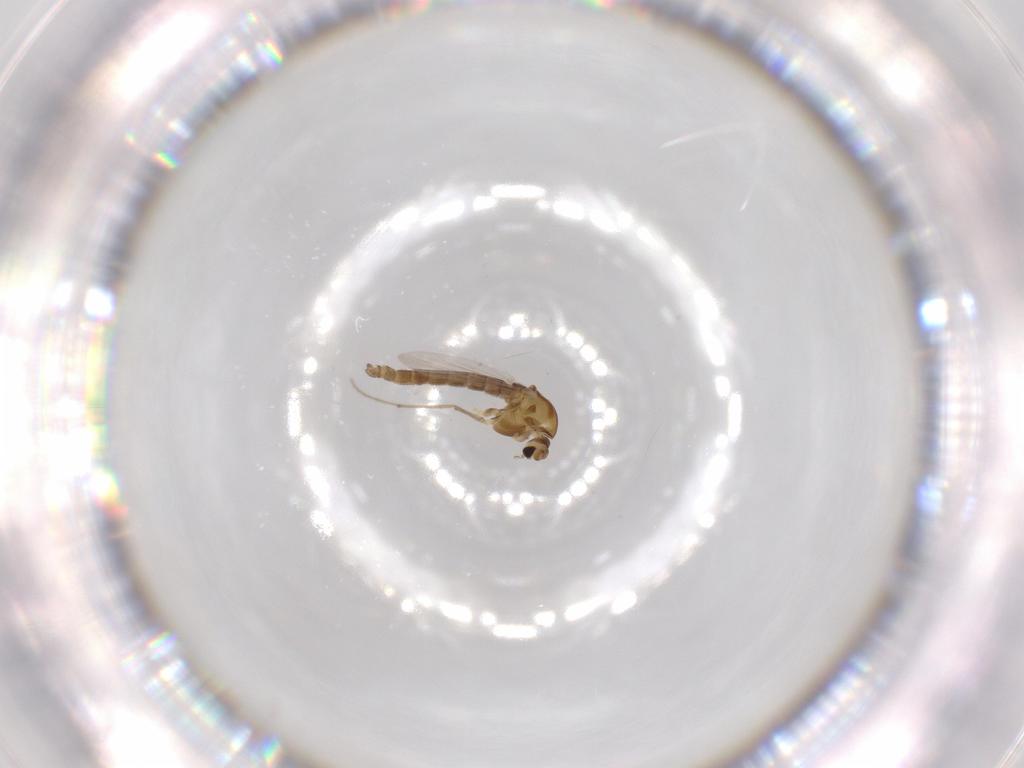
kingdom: Animalia
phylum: Arthropoda
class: Insecta
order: Diptera
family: Chironomidae
